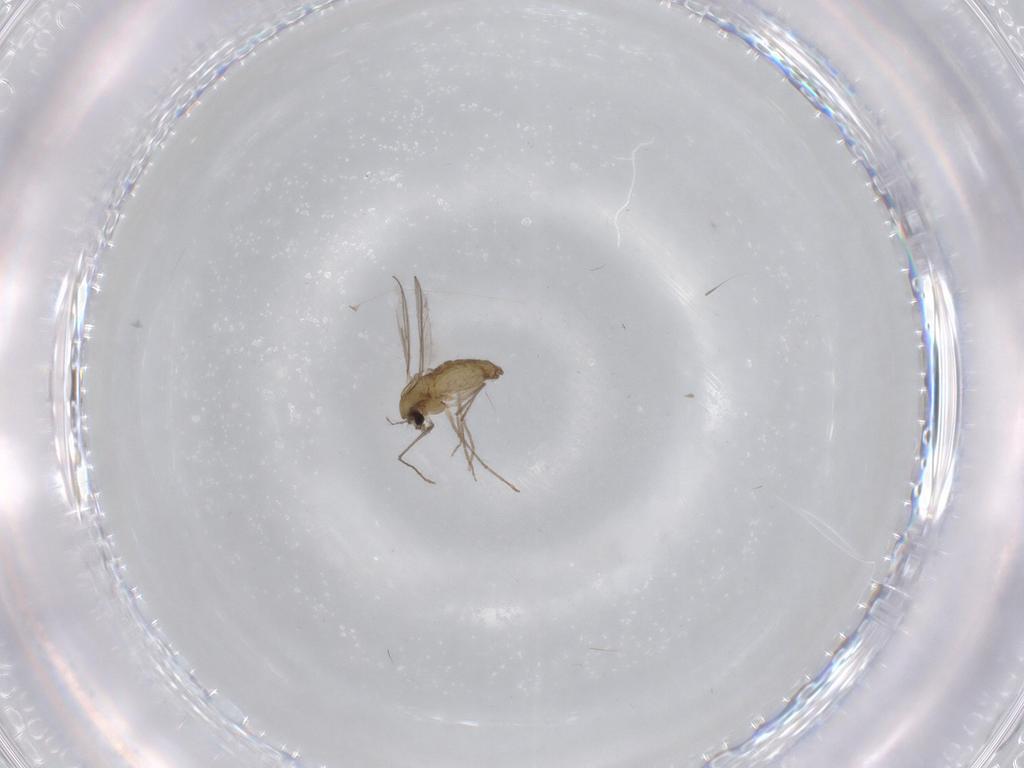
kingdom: Animalia
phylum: Arthropoda
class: Insecta
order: Diptera
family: Chironomidae
